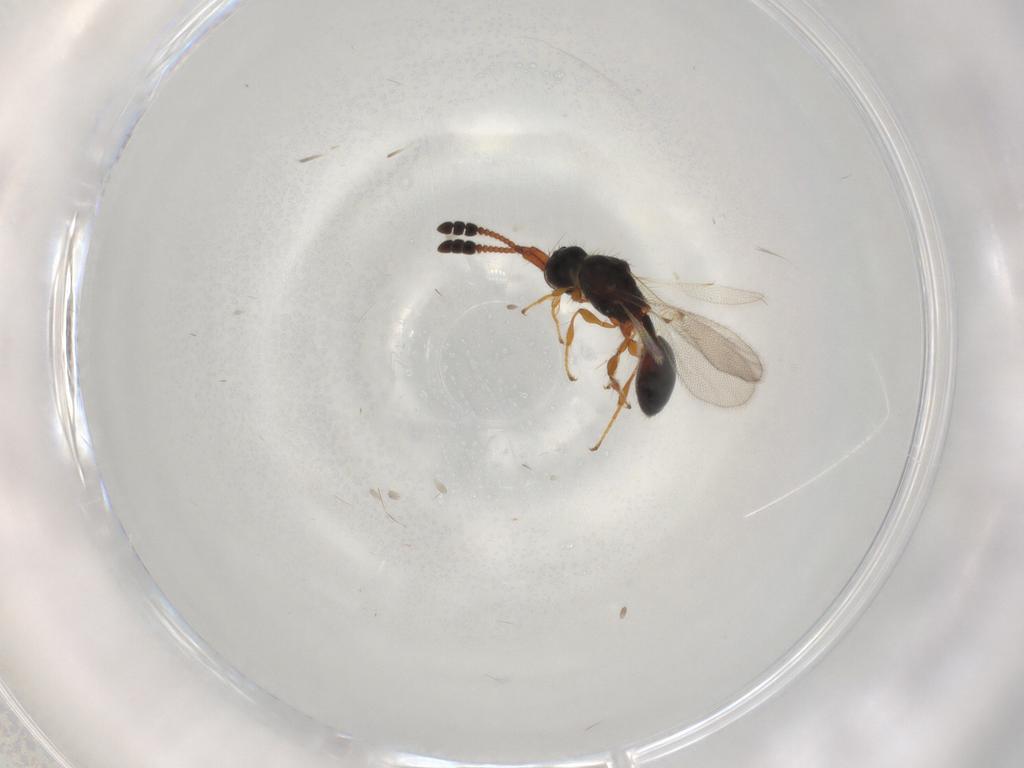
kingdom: Animalia
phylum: Arthropoda
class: Insecta
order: Hymenoptera
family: Diapriidae
